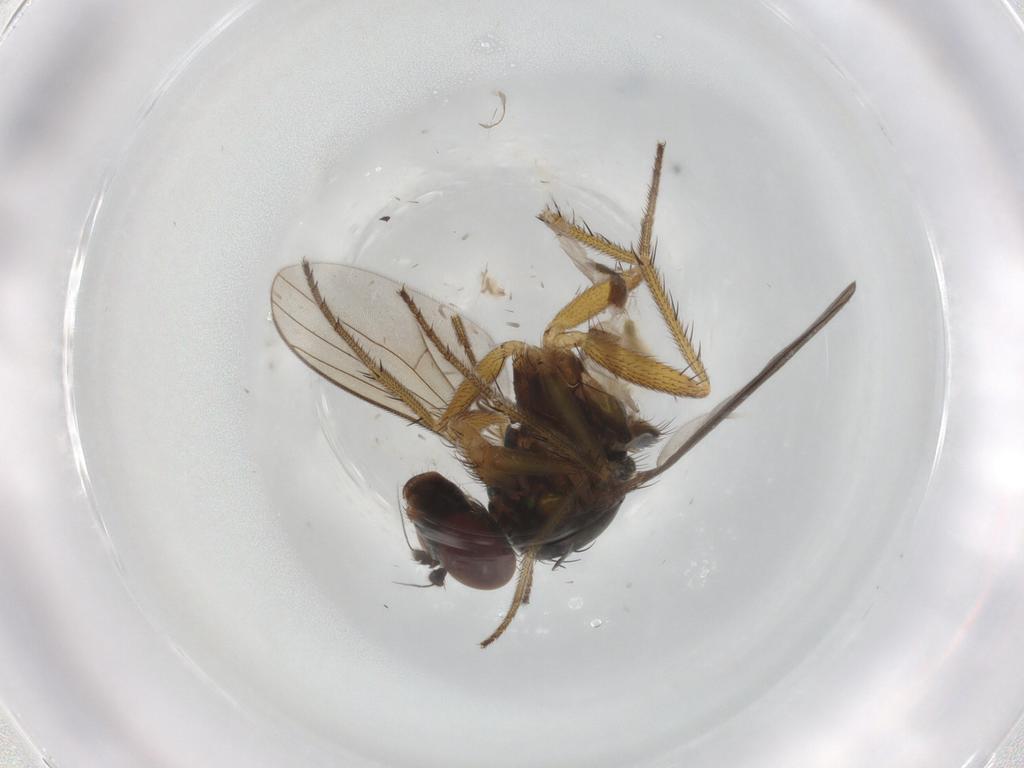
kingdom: Animalia
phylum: Arthropoda
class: Insecta
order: Diptera
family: Micropezidae
